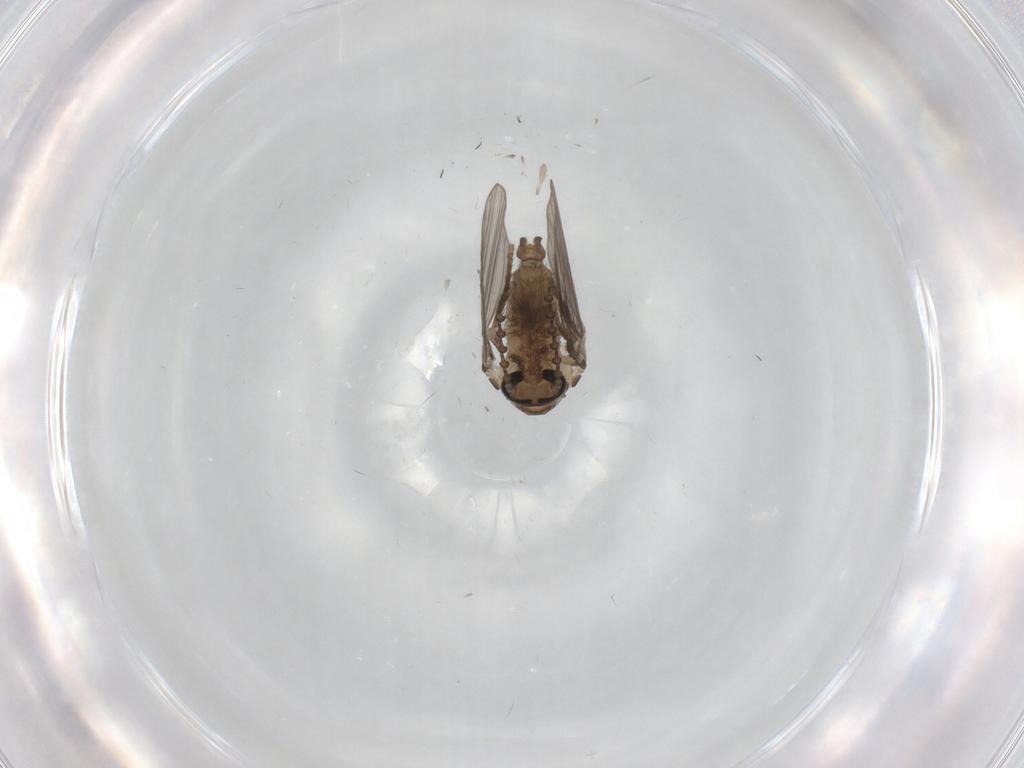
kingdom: Animalia
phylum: Arthropoda
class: Insecta
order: Diptera
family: Psychodidae
